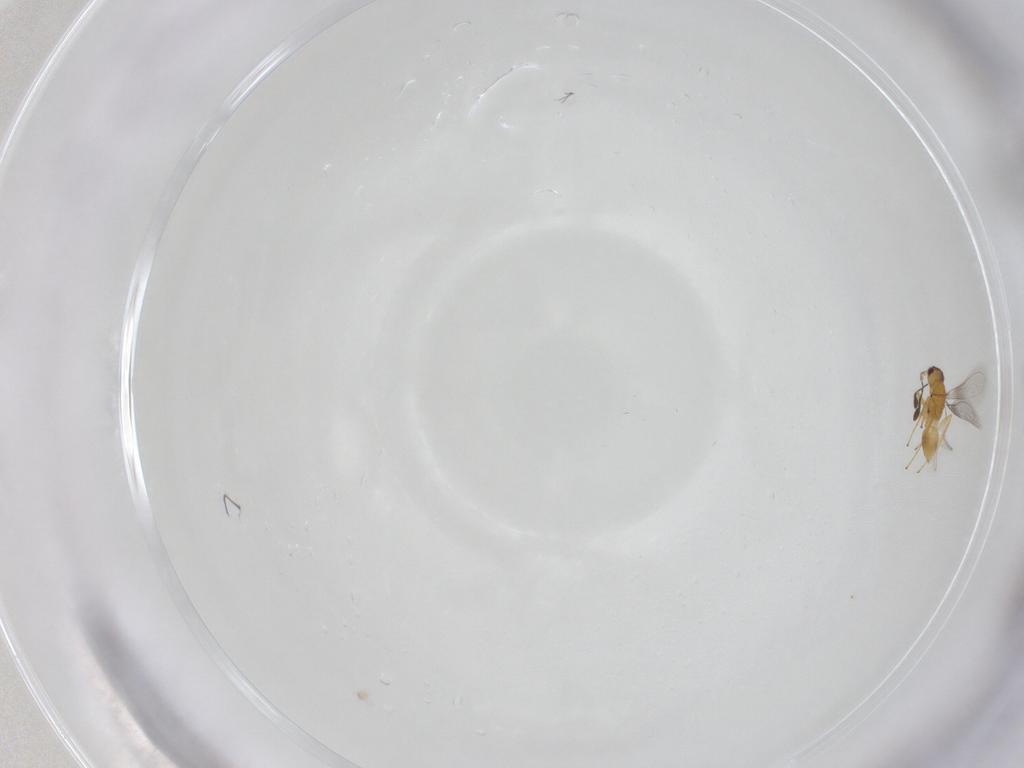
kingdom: Animalia
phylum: Arthropoda
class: Insecta
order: Hymenoptera
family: Mymaridae
